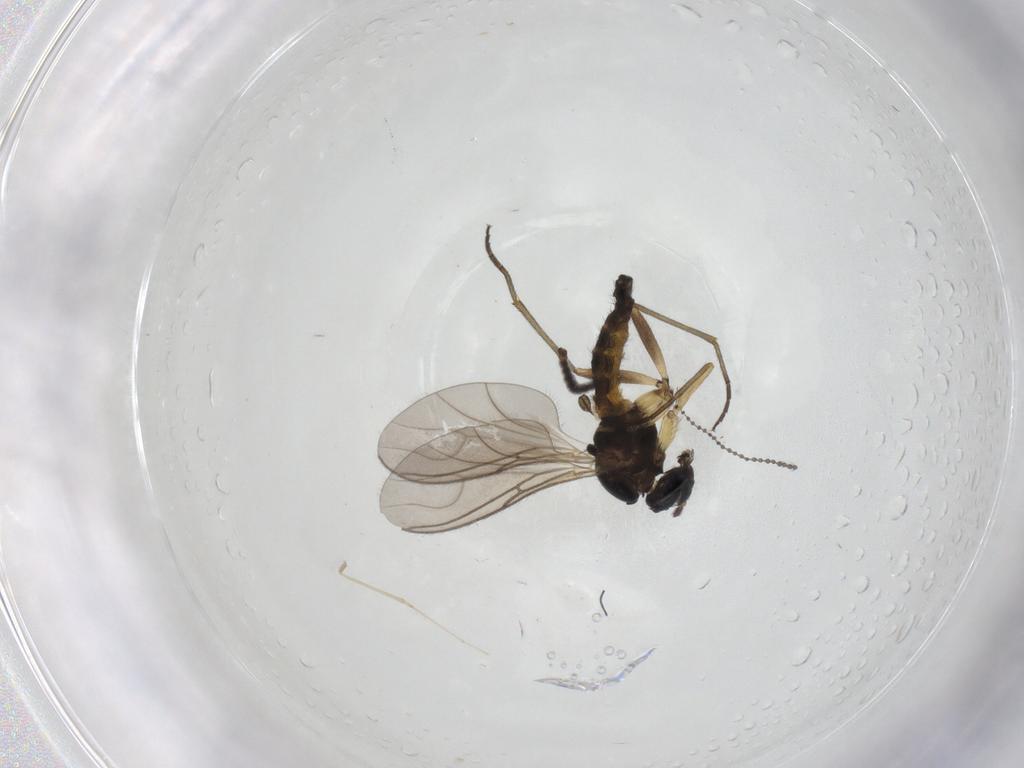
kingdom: Animalia
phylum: Arthropoda
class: Insecta
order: Diptera
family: Sciaridae
